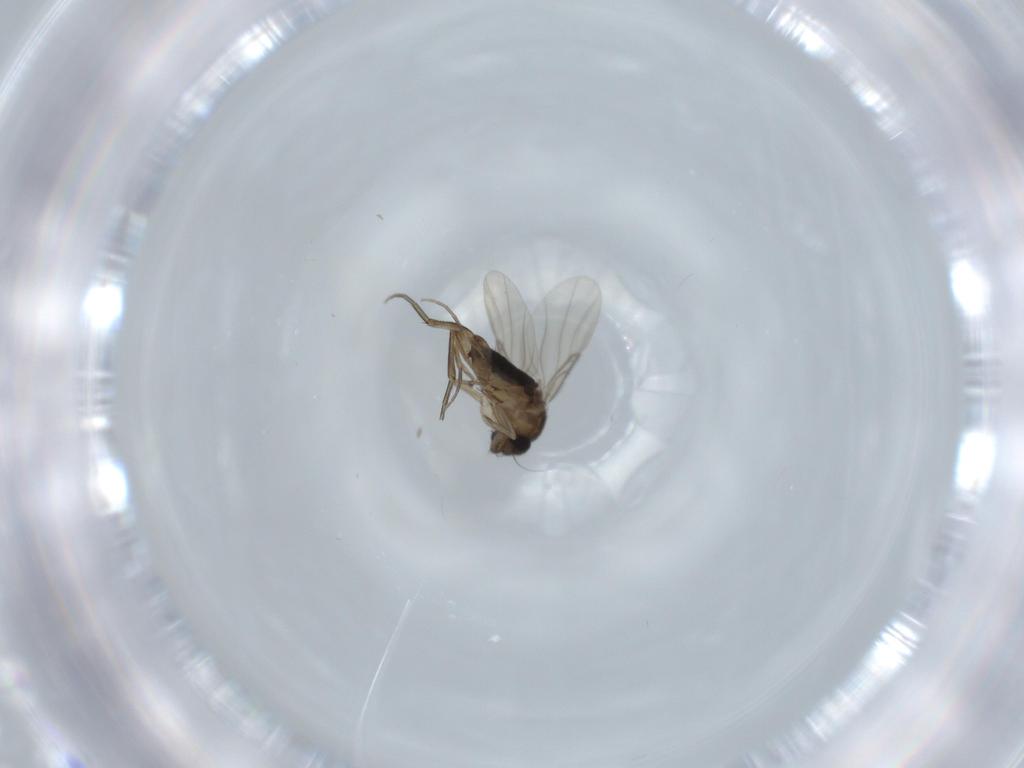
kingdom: Animalia
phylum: Arthropoda
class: Insecta
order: Diptera
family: Phoridae
